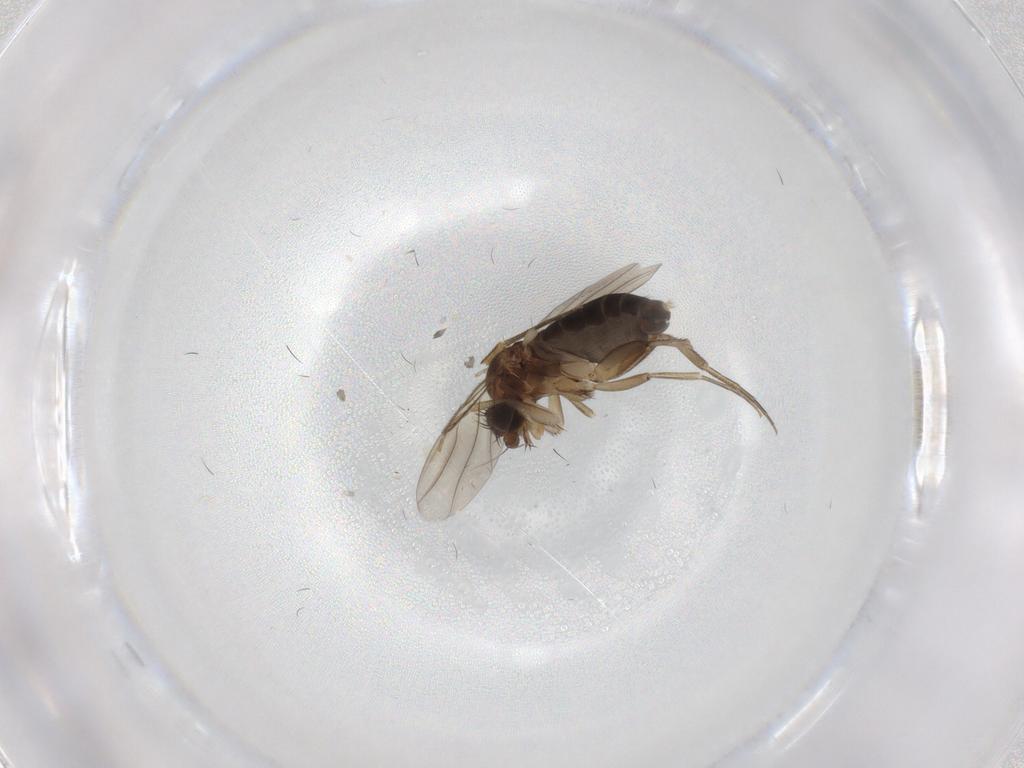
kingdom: Animalia
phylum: Arthropoda
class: Insecta
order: Diptera
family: Phoridae
